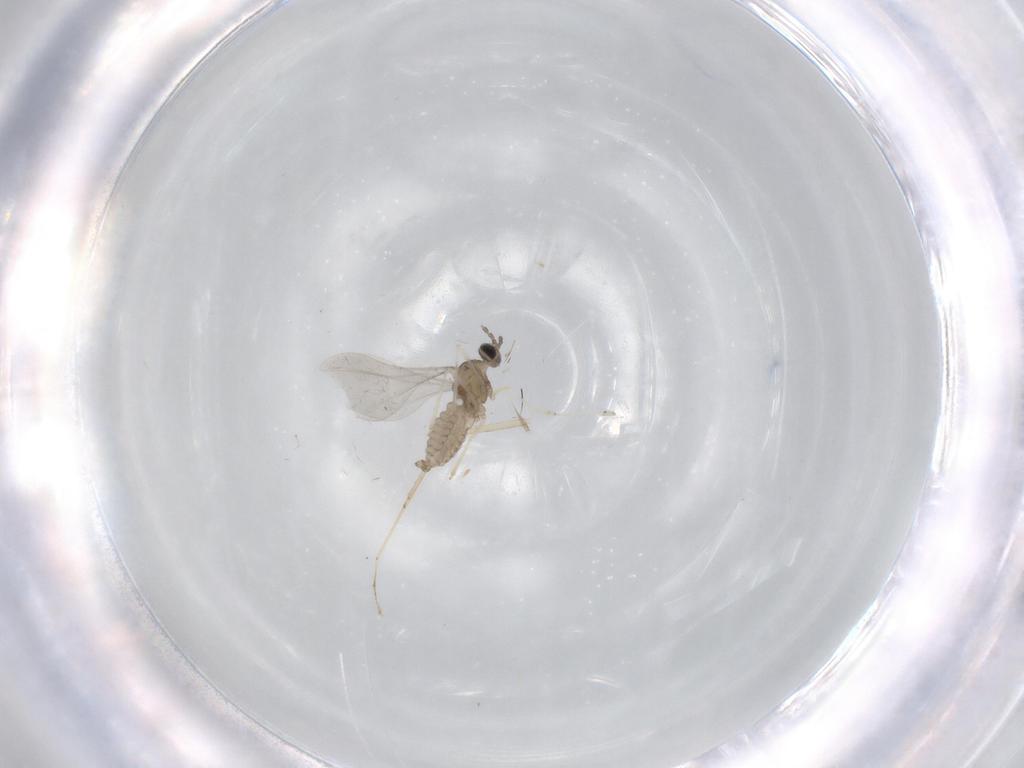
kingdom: Animalia
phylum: Arthropoda
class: Insecta
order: Diptera
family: Cecidomyiidae
